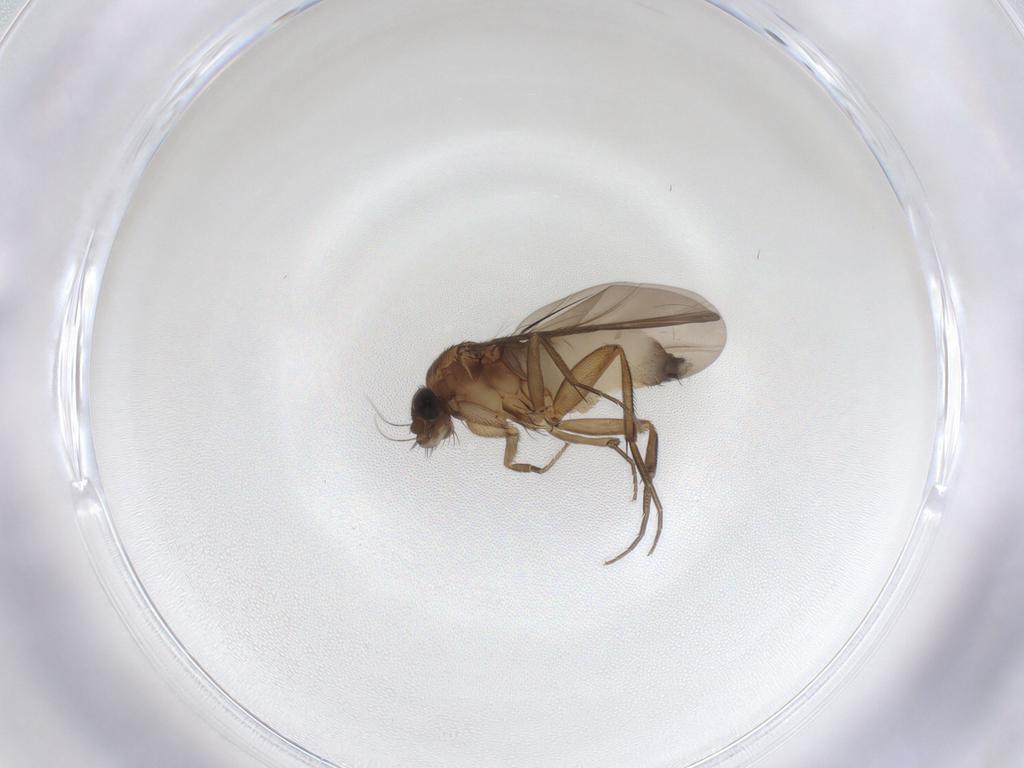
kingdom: Animalia
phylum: Arthropoda
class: Insecta
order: Diptera
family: Phoridae
